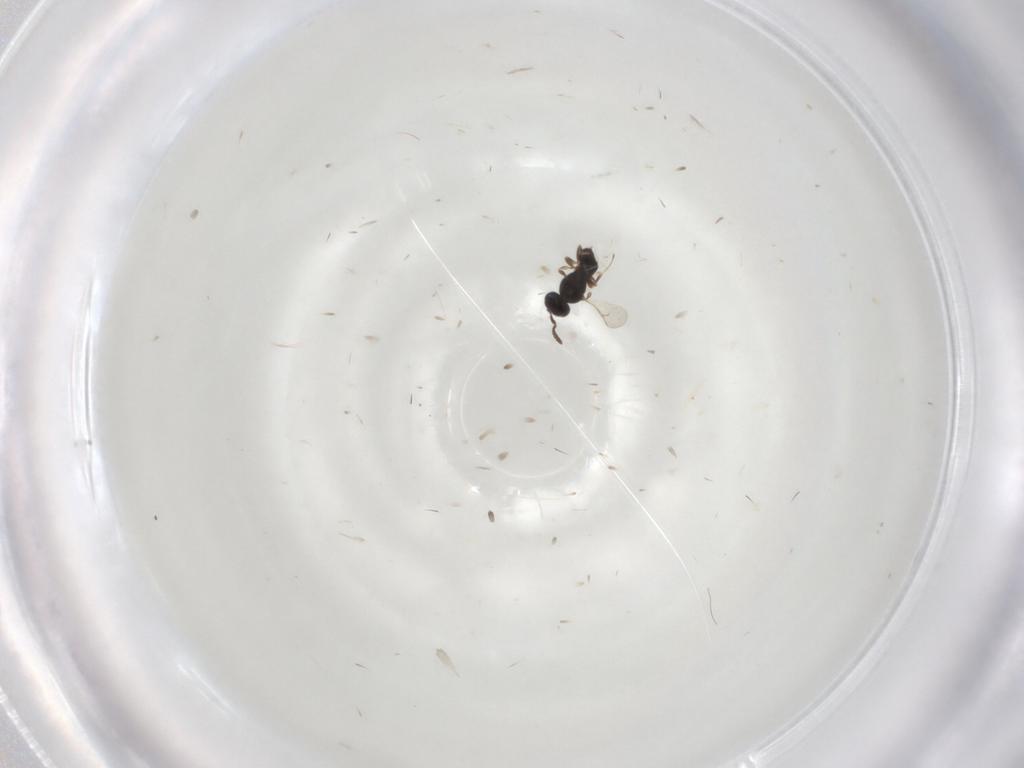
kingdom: Animalia
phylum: Arthropoda
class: Insecta
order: Hymenoptera
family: Scelionidae
